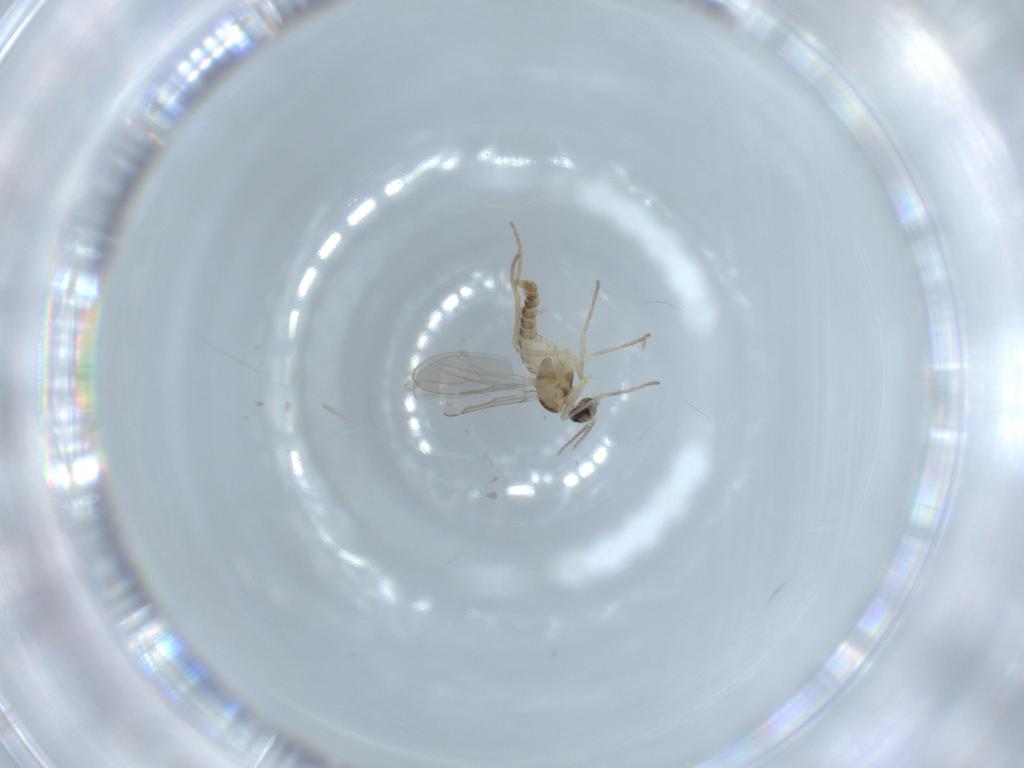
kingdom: Animalia
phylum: Arthropoda
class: Insecta
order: Diptera
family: Cecidomyiidae
